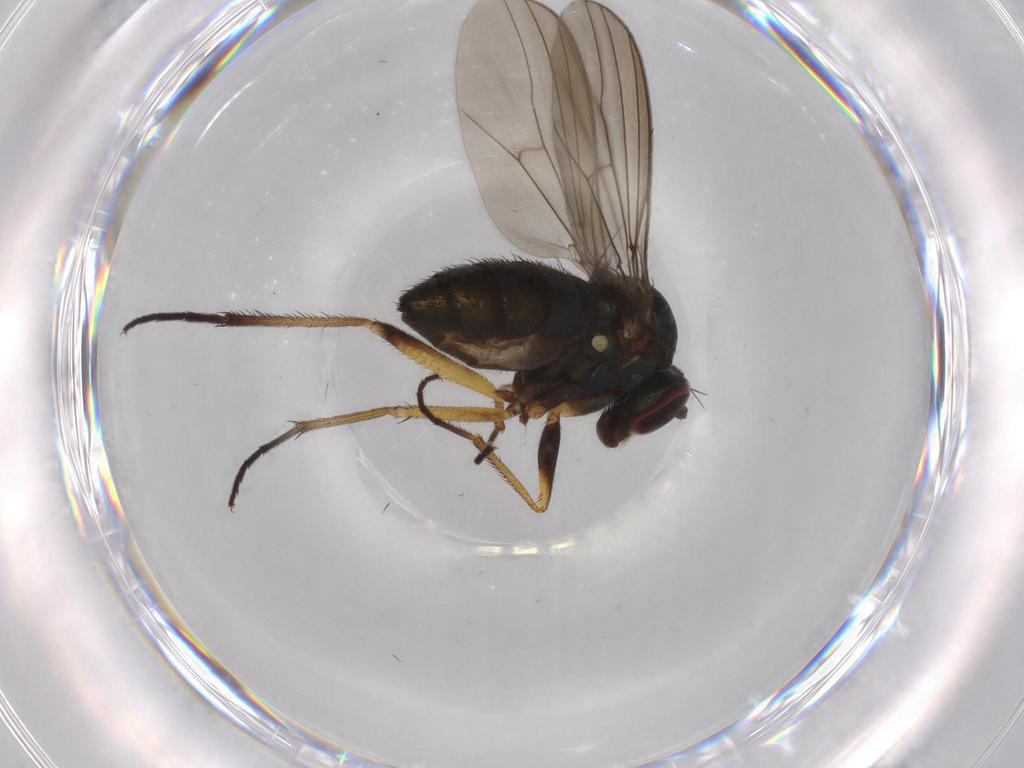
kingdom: Animalia
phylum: Arthropoda
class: Insecta
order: Diptera
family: Dolichopodidae
